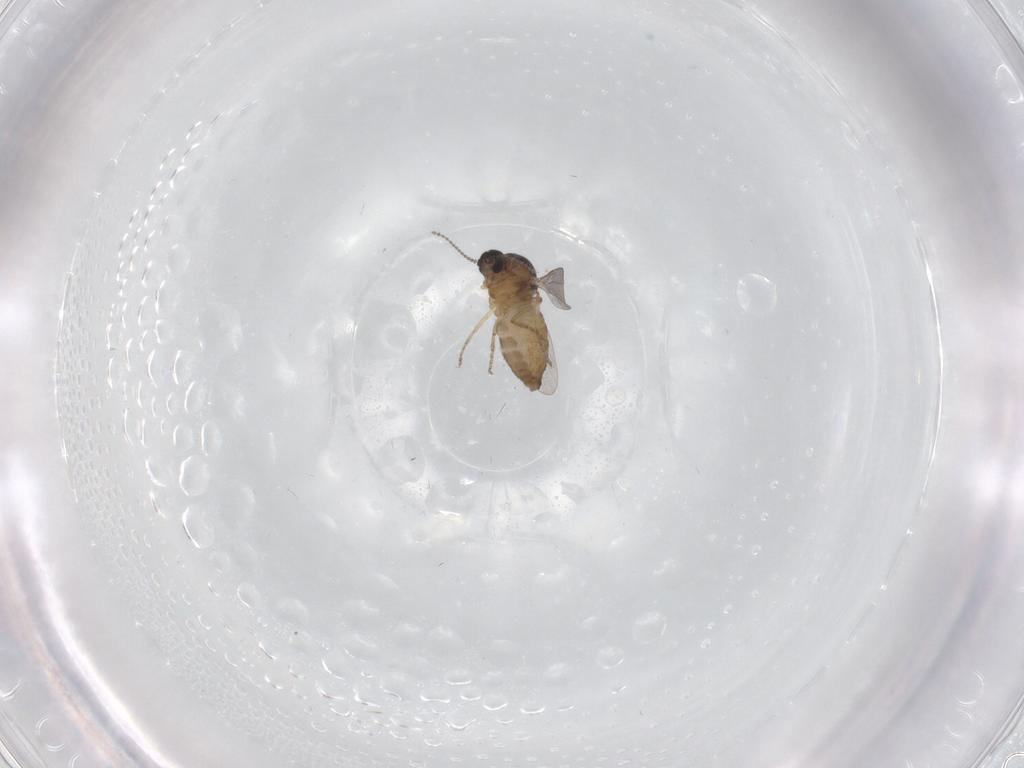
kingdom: Animalia
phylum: Arthropoda
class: Insecta
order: Diptera
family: Ceratopogonidae
